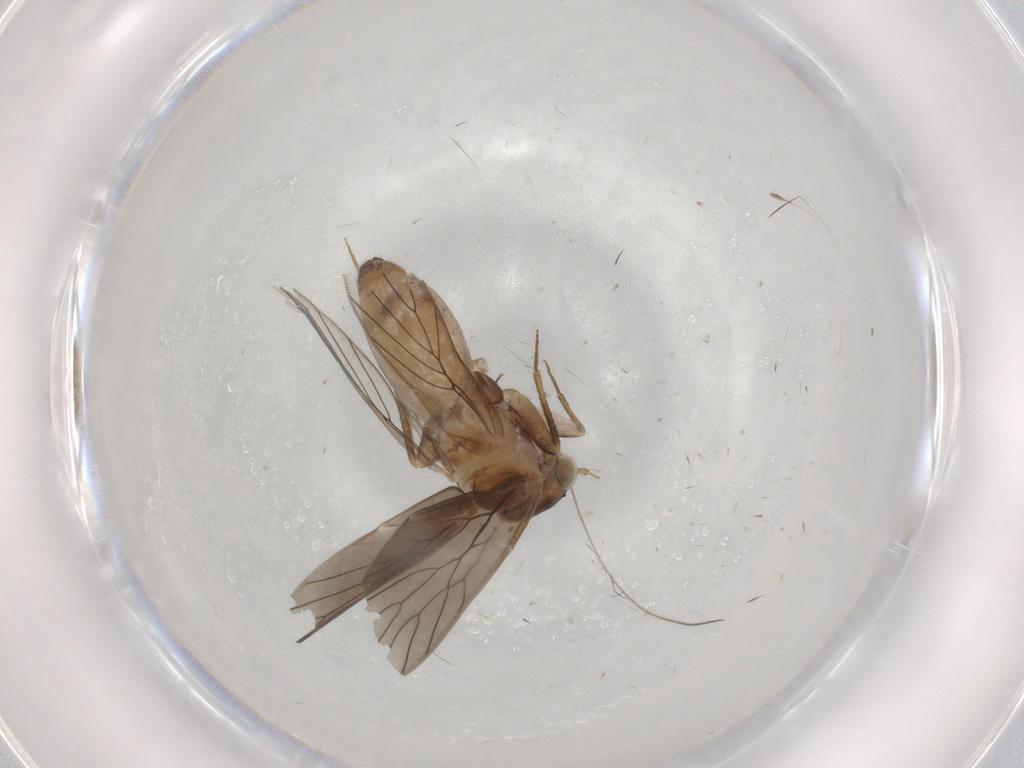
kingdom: Animalia
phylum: Arthropoda
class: Insecta
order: Psocodea
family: Lepidopsocidae
